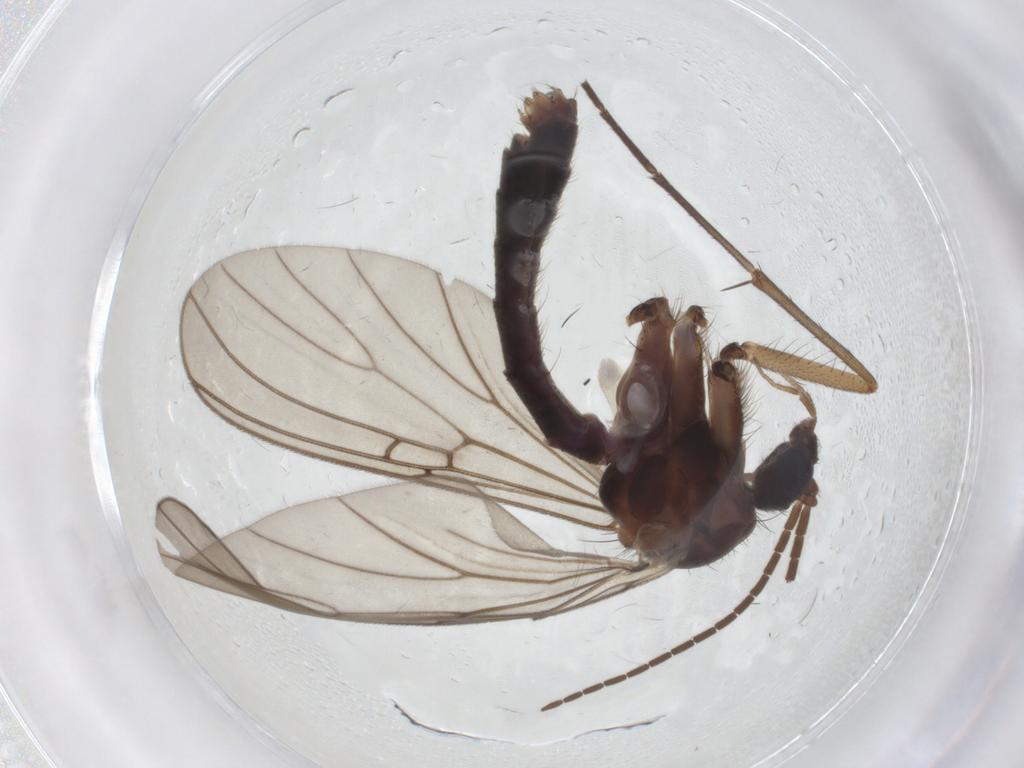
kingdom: Animalia
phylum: Arthropoda
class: Insecta
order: Diptera
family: Mycetophilidae
